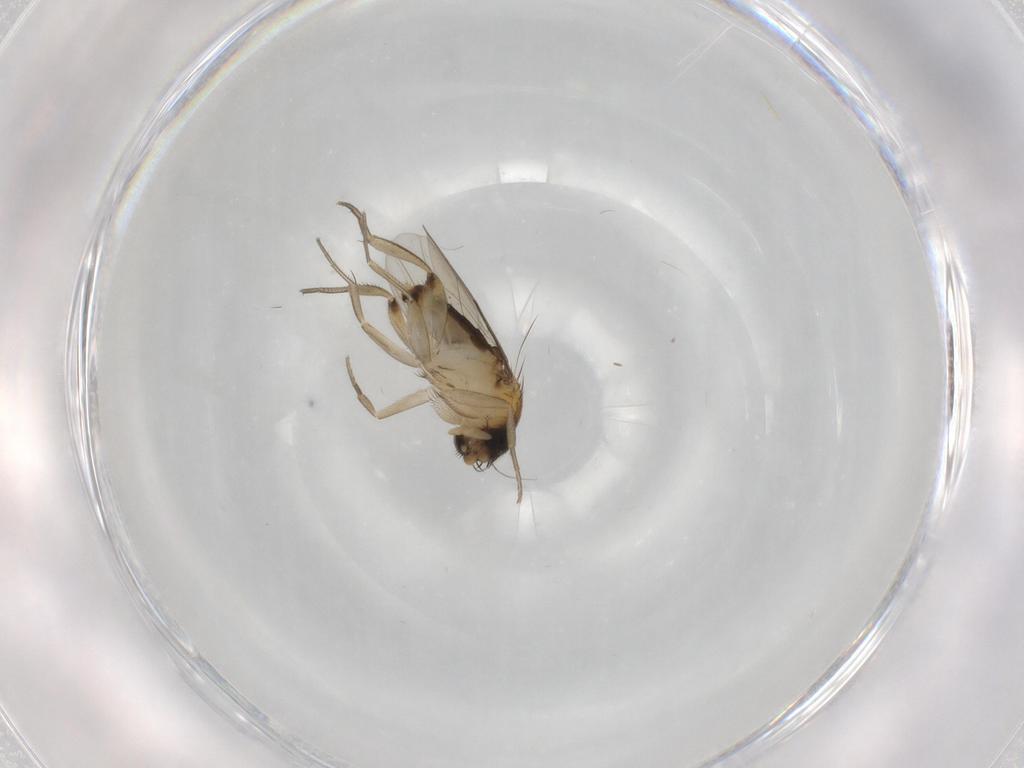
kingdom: Animalia
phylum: Arthropoda
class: Insecta
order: Diptera
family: Phoridae
